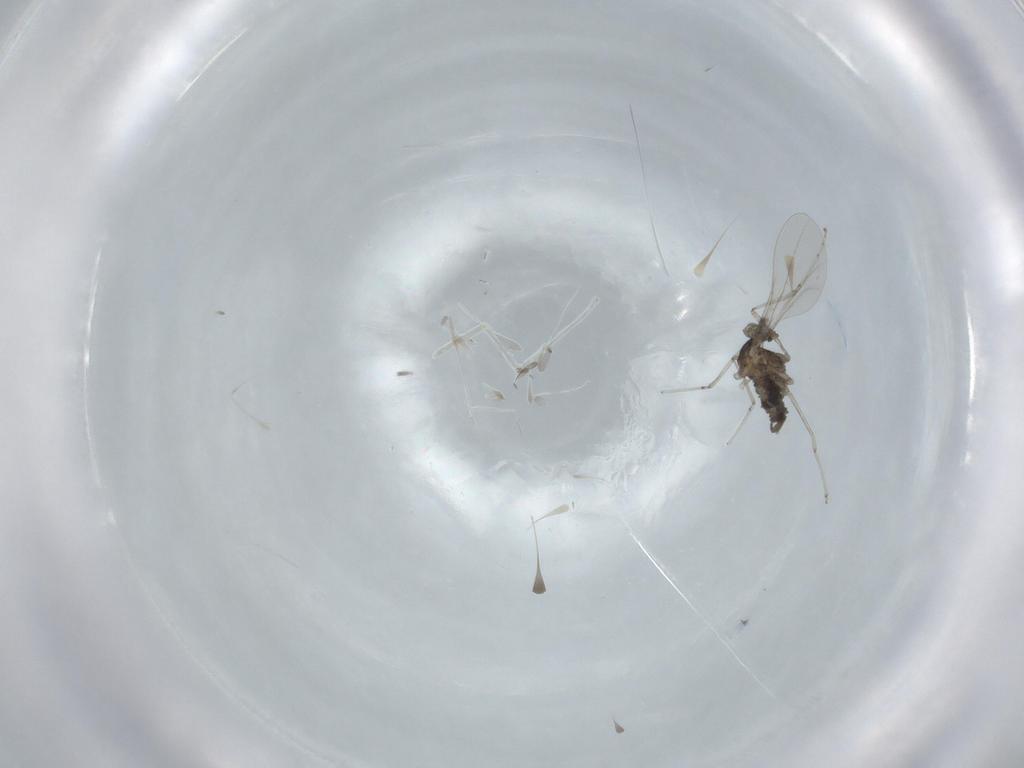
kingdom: Animalia
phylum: Arthropoda
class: Insecta
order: Diptera
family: Cecidomyiidae
